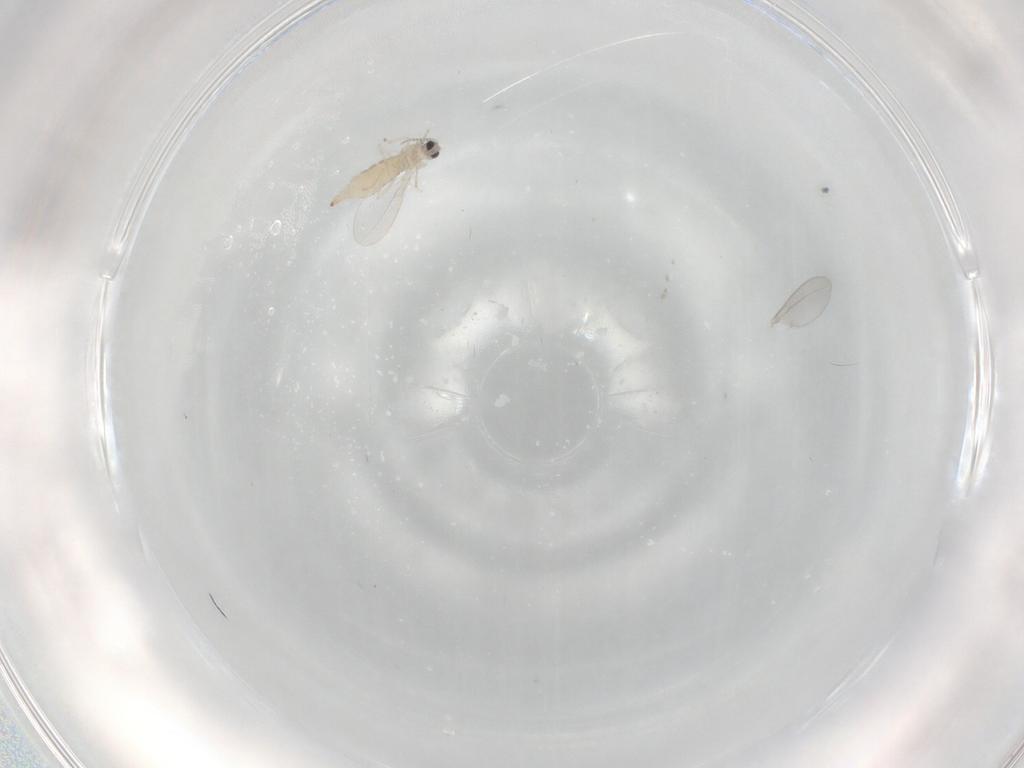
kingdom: Animalia
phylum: Arthropoda
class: Insecta
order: Diptera
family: Cecidomyiidae
